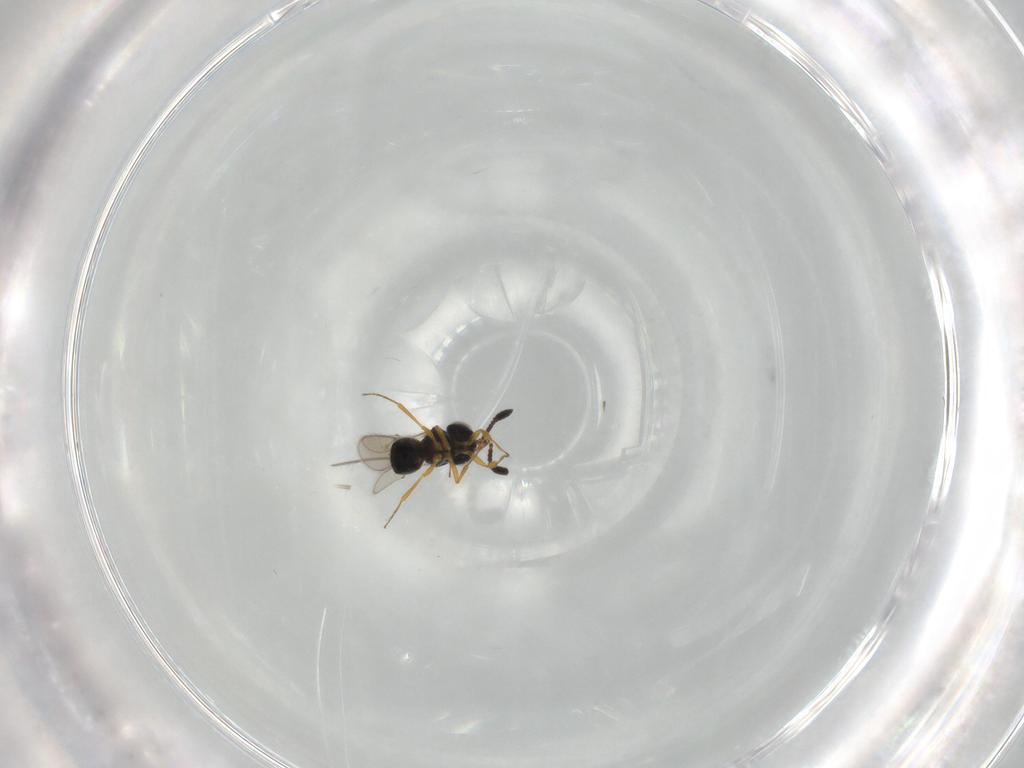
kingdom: Animalia
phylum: Arthropoda
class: Insecta
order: Hymenoptera
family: Scelionidae
